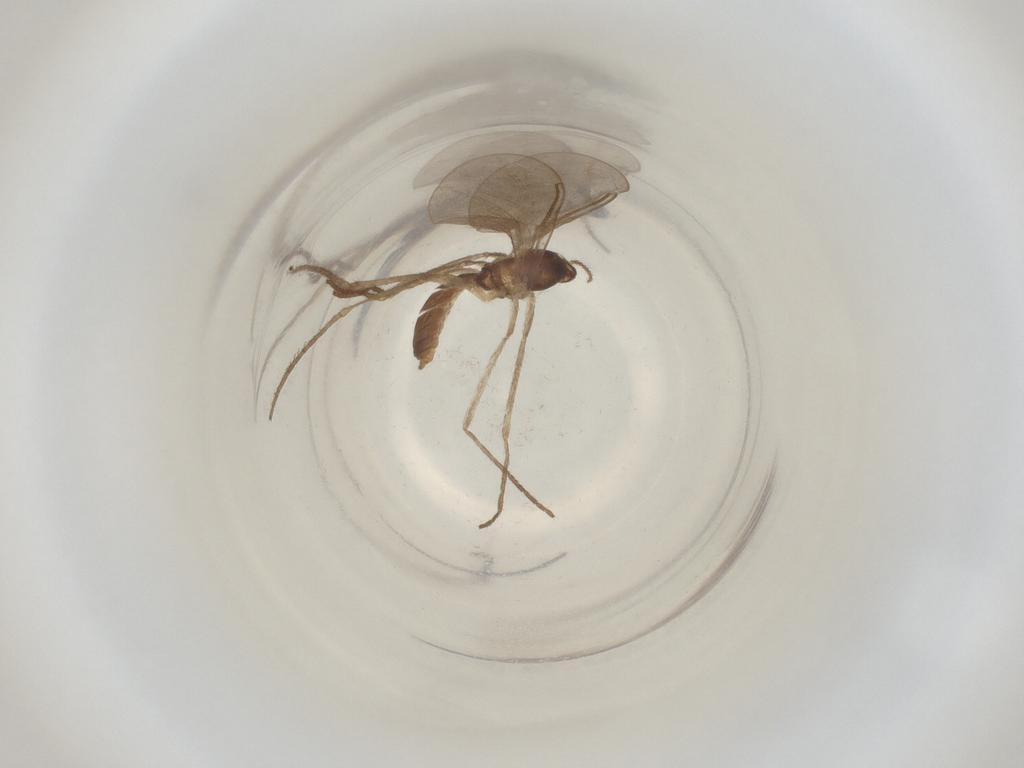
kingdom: Animalia
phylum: Arthropoda
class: Insecta
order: Diptera
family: Cecidomyiidae
